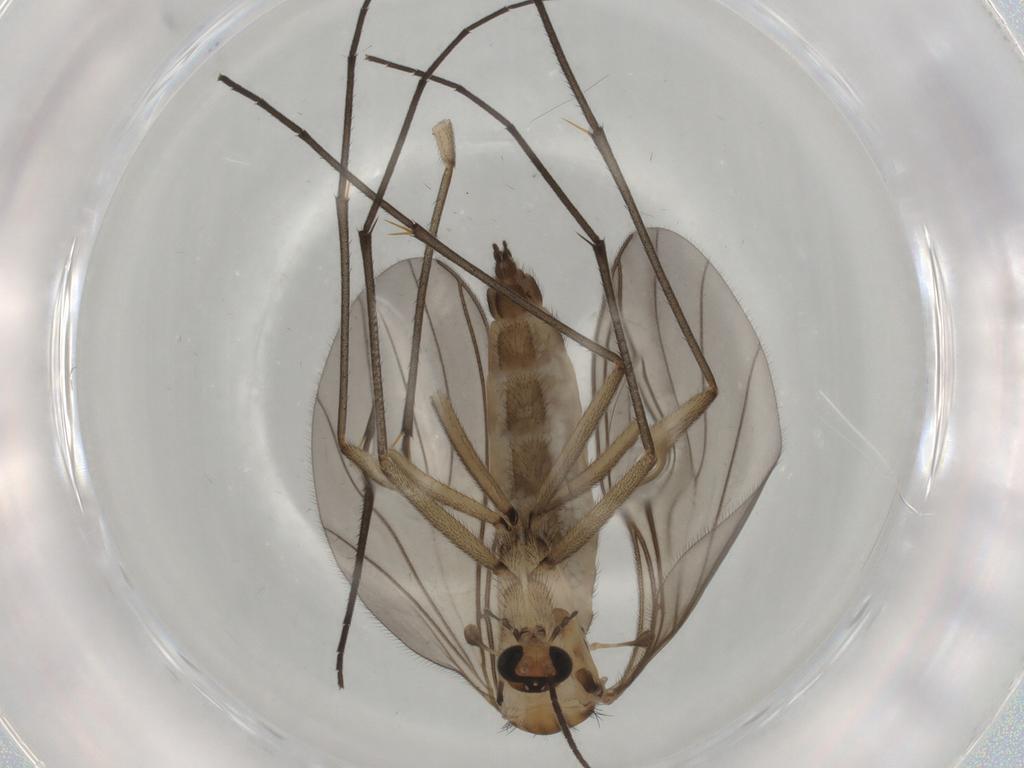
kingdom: Animalia
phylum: Arthropoda
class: Insecta
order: Diptera
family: Sciaridae
